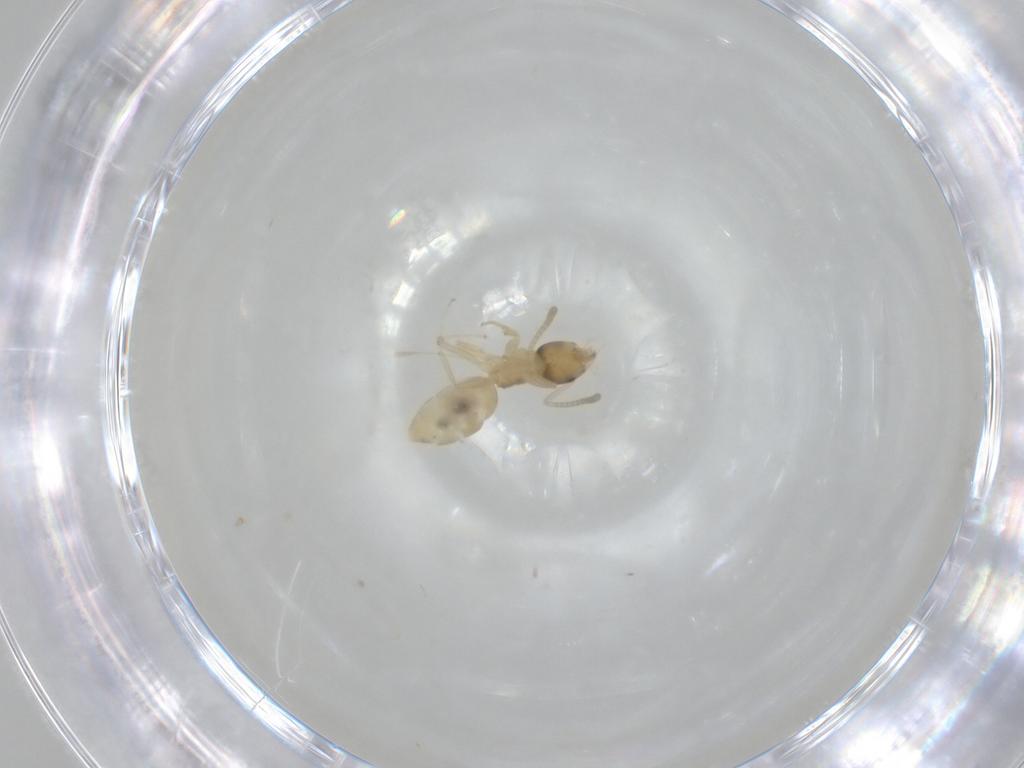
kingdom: Animalia
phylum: Arthropoda
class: Insecta
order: Hymenoptera
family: Formicidae
